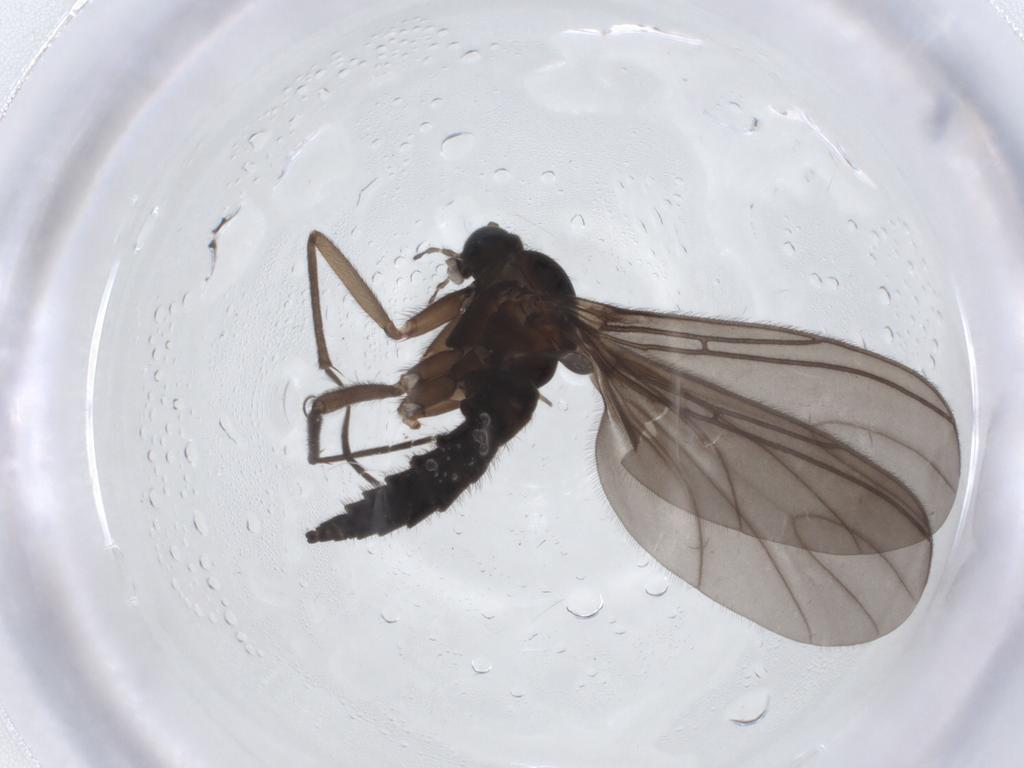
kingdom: Animalia
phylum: Arthropoda
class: Insecta
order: Diptera
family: Sciaridae
